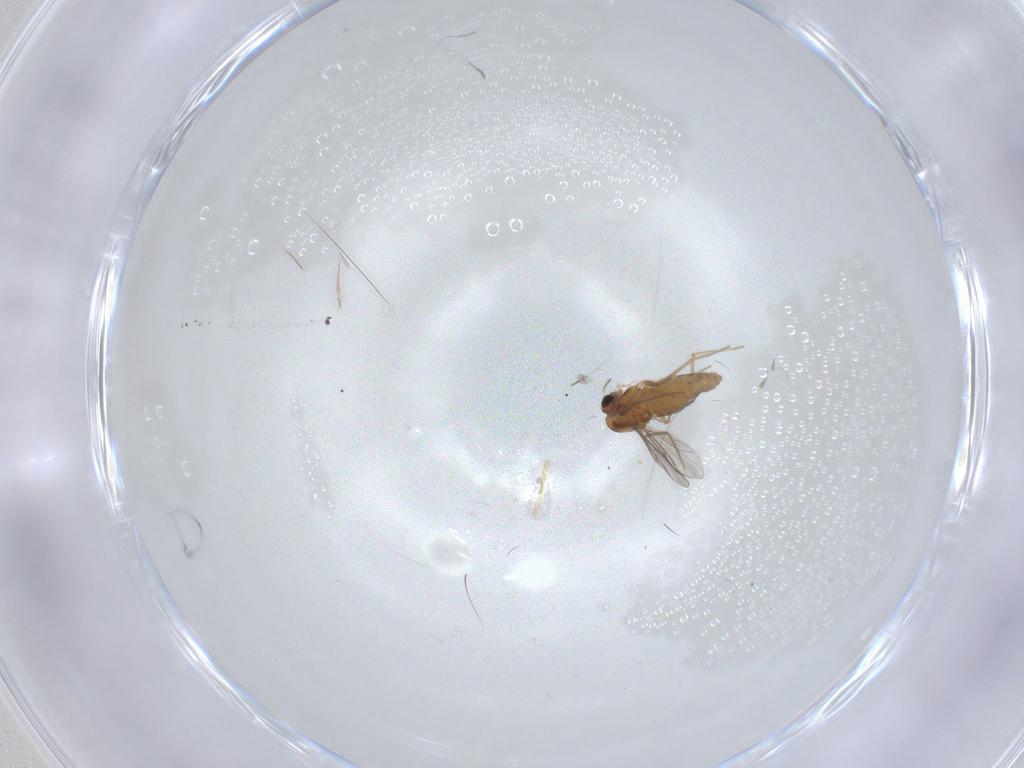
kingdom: Animalia
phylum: Arthropoda
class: Insecta
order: Diptera
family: Chironomidae
